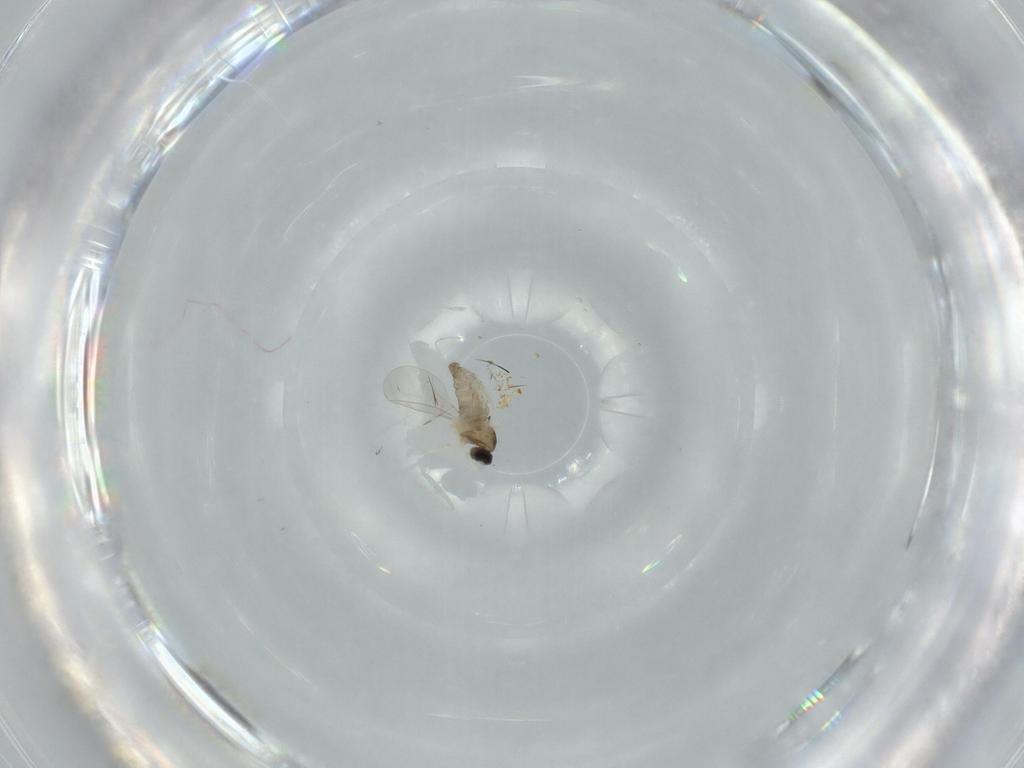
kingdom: Animalia
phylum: Arthropoda
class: Insecta
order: Diptera
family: Cecidomyiidae
